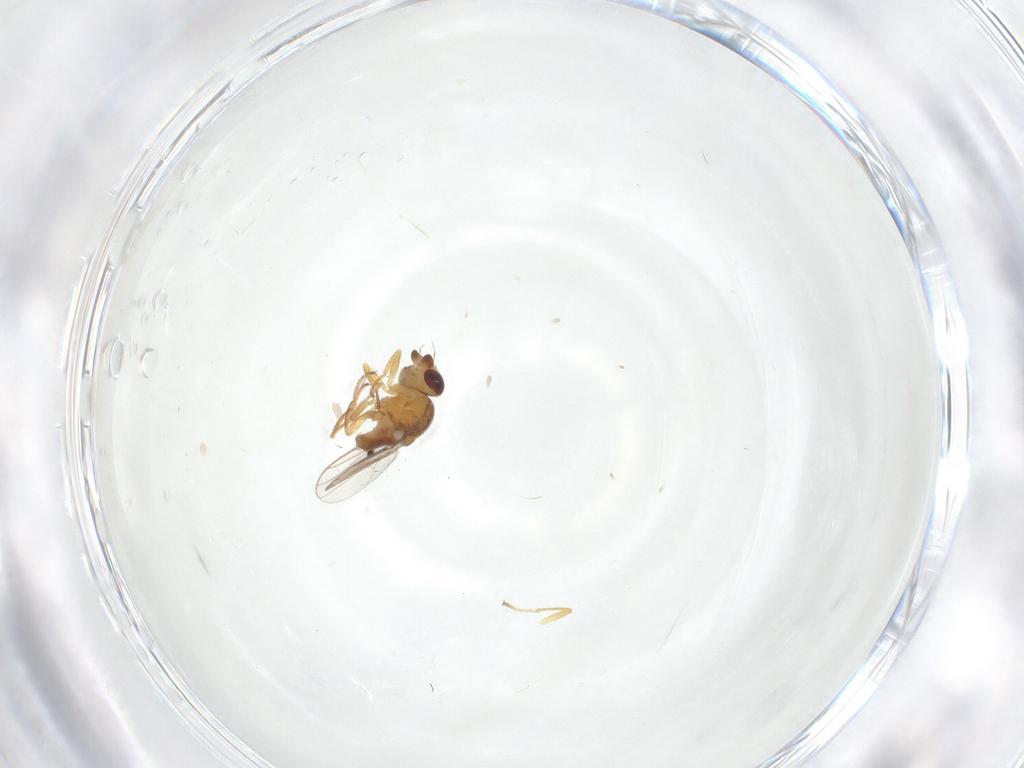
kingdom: Animalia
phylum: Arthropoda
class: Insecta
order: Diptera
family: Chloropidae
